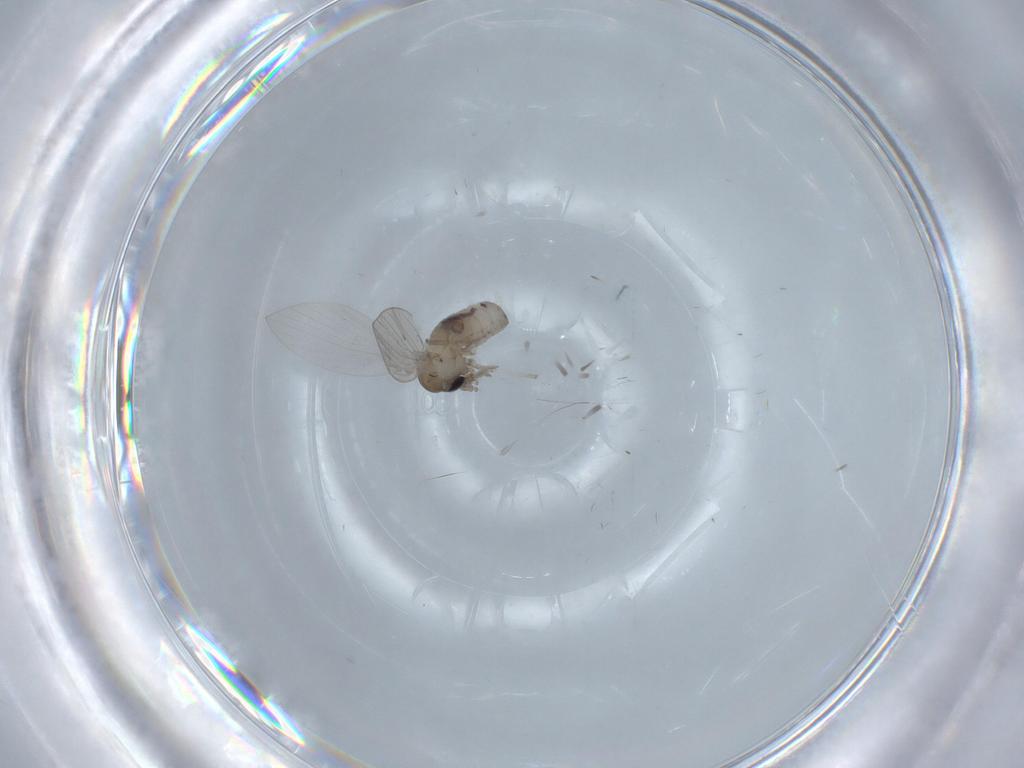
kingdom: Animalia
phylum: Arthropoda
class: Insecta
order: Diptera
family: Psychodidae
